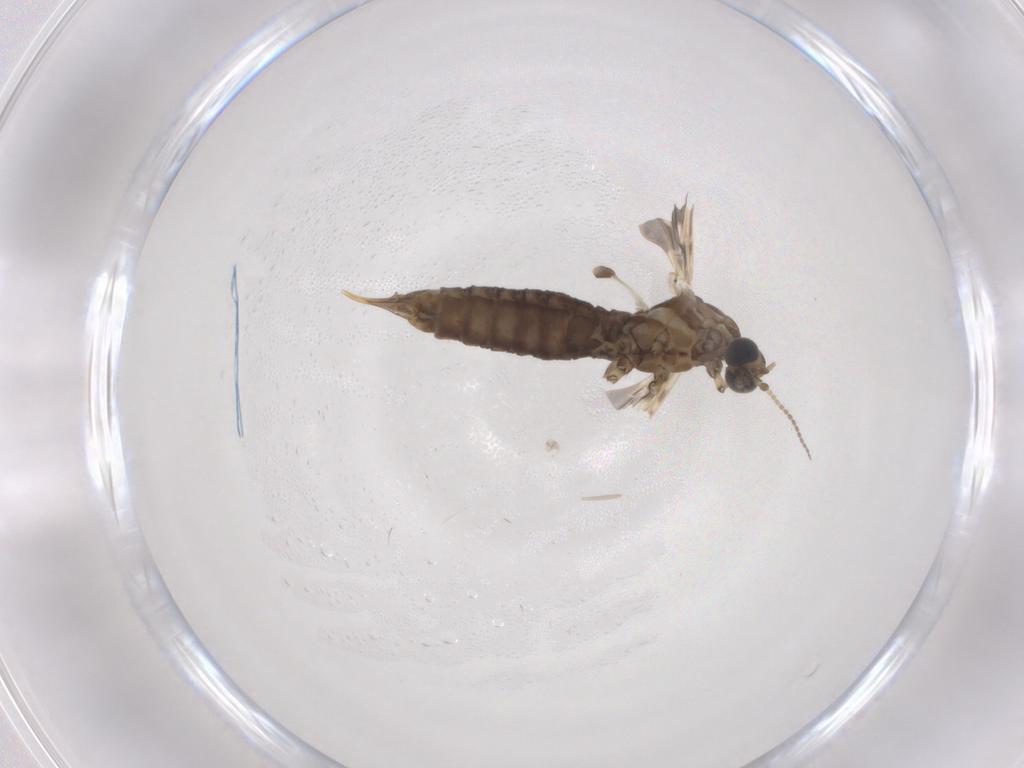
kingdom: Animalia
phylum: Arthropoda
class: Insecta
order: Diptera
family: Limoniidae
